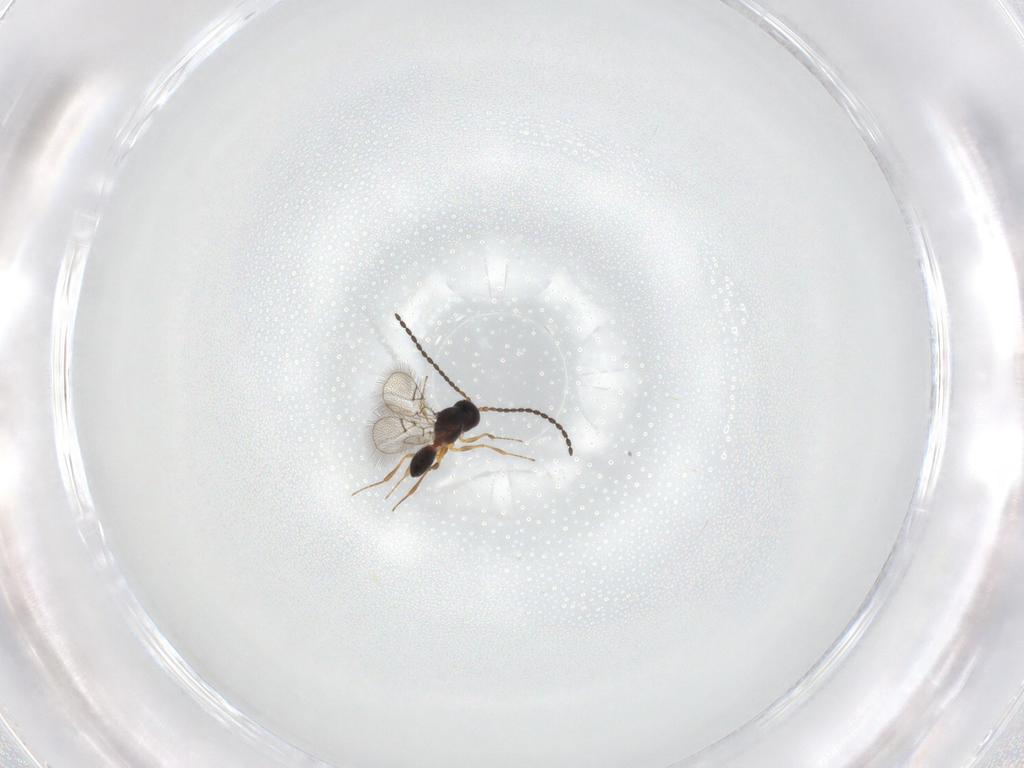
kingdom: Animalia
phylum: Arthropoda
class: Insecta
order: Hymenoptera
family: Figitidae
